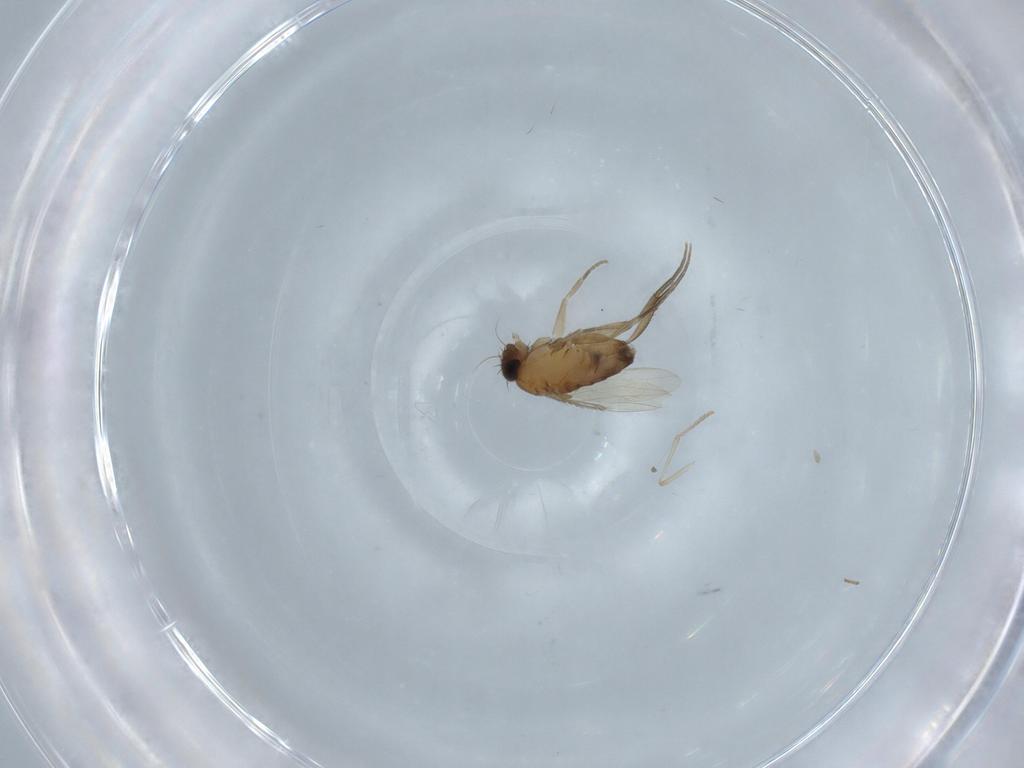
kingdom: Animalia
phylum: Arthropoda
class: Insecta
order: Diptera
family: Phoridae
